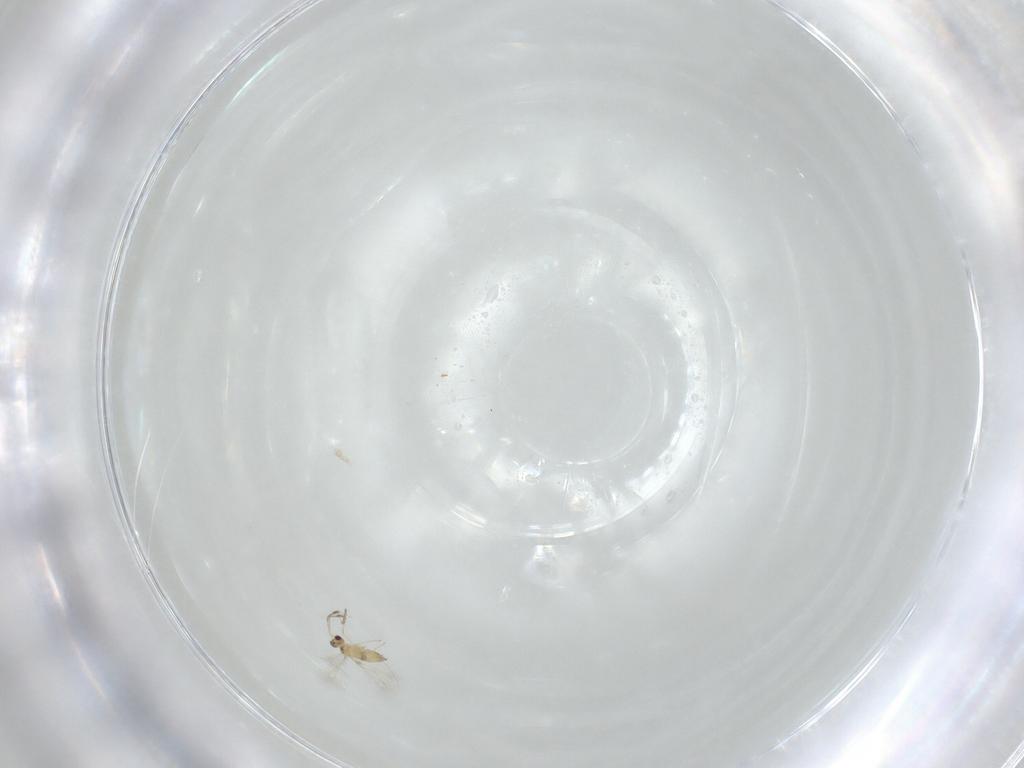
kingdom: Animalia
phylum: Arthropoda
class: Insecta
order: Hymenoptera
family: Mymaridae
